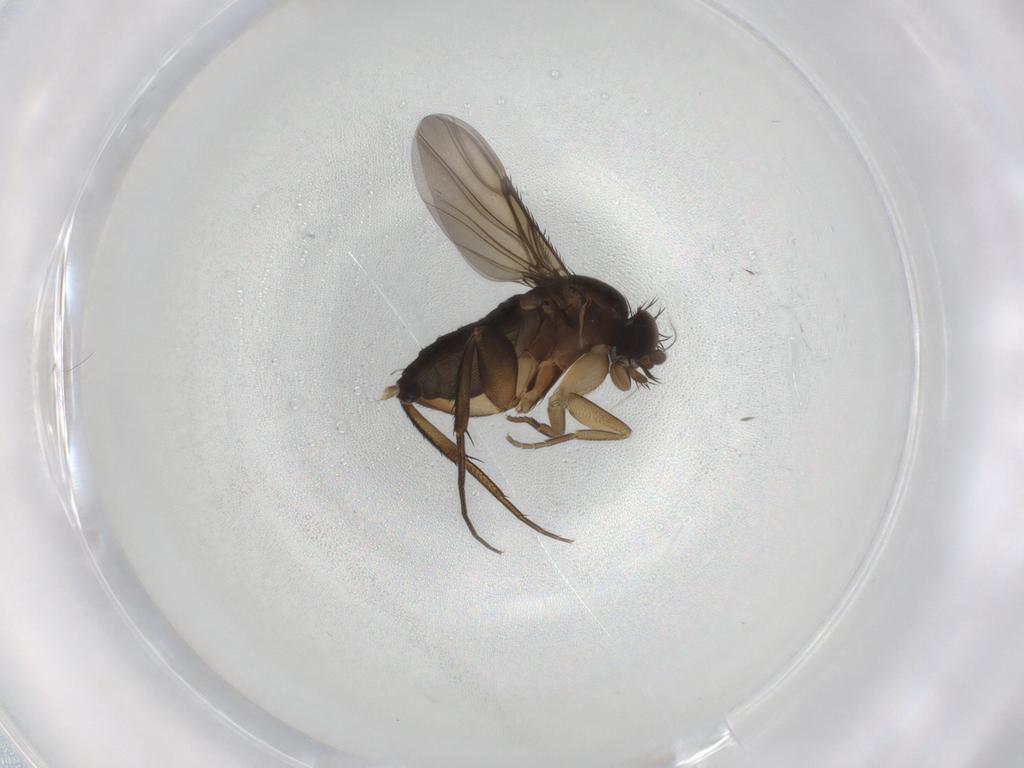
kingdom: Animalia
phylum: Arthropoda
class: Insecta
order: Diptera
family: Phoridae
